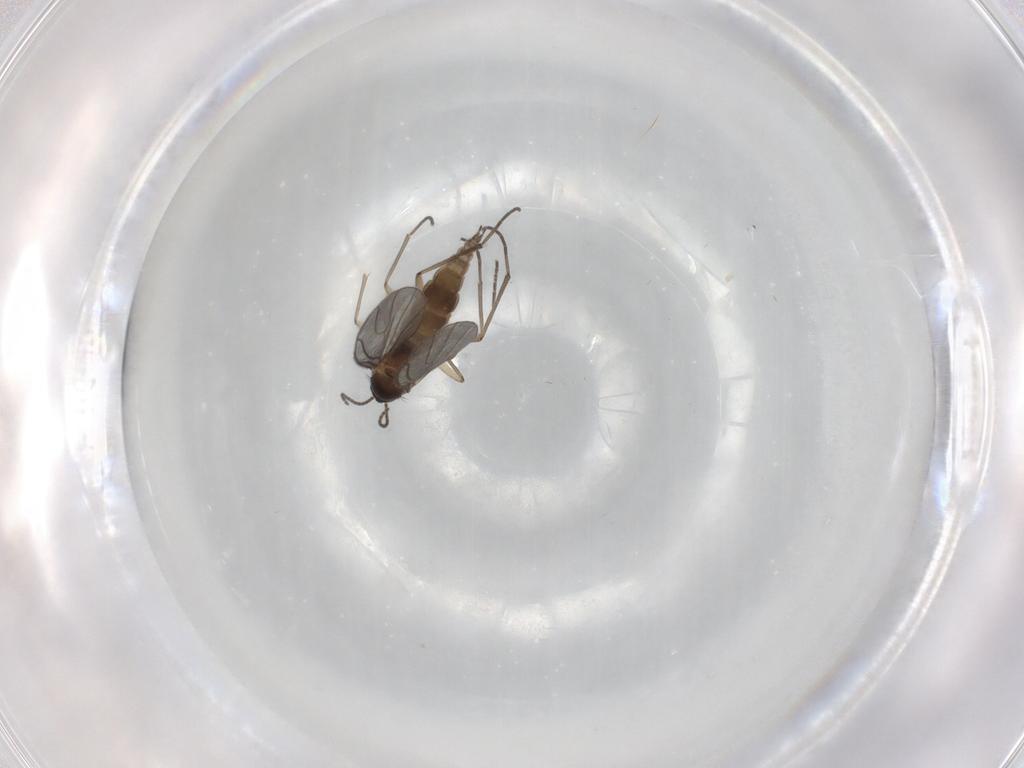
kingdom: Animalia
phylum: Arthropoda
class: Insecta
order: Diptera
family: Sciaridae
